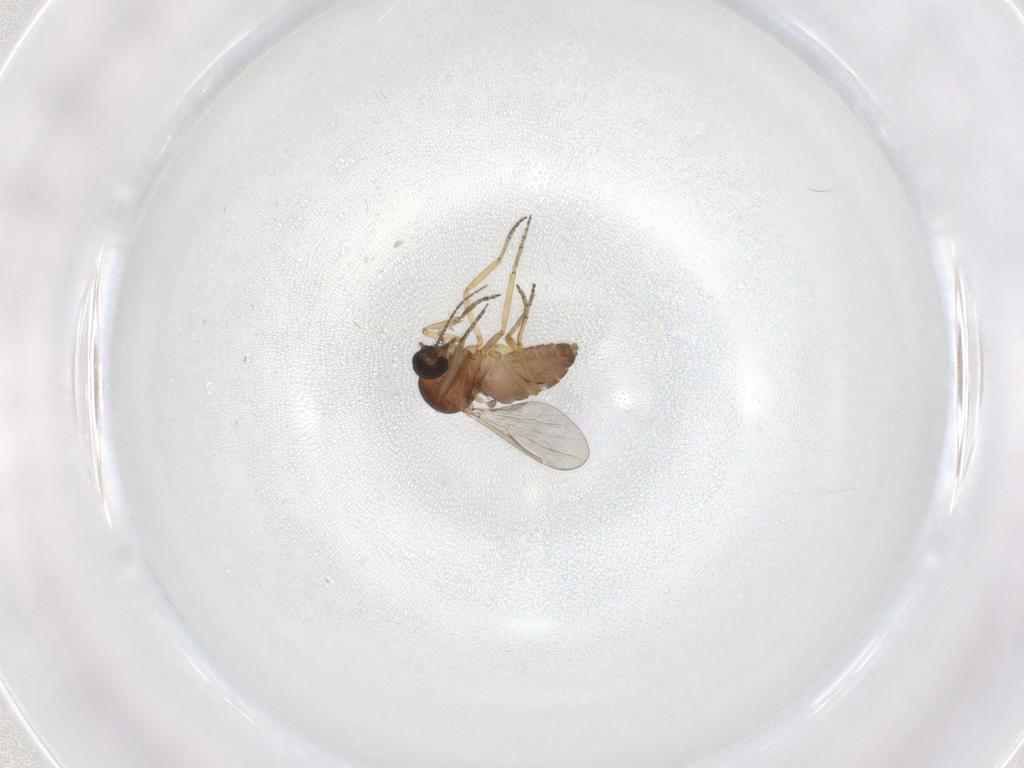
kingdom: Animalia
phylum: Arthropoda
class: Insecta
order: Diptera
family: Ceratopogonidae
